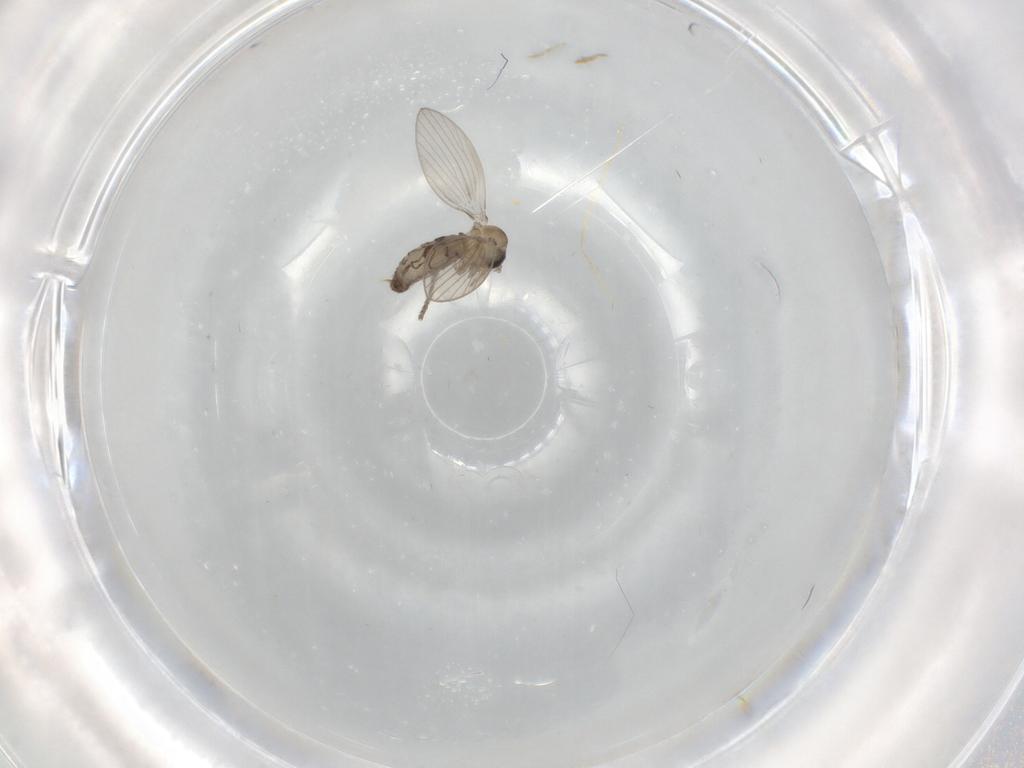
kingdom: Animalia
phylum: Arthropoda
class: Insecta
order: Diptera
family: Psychodidae
